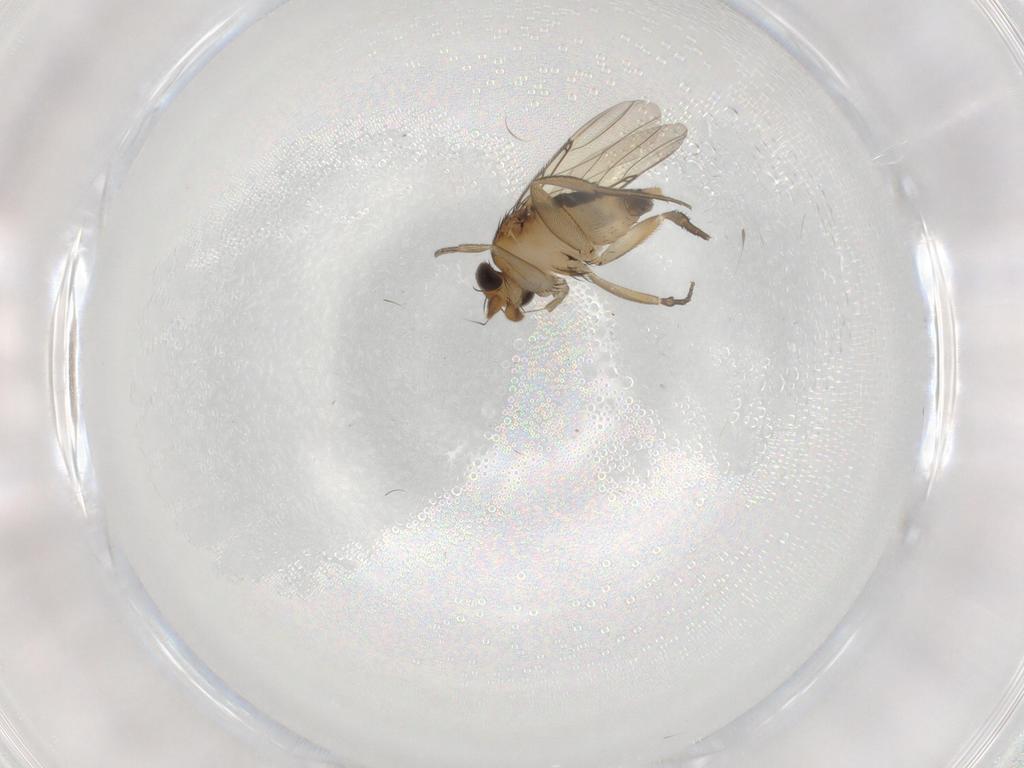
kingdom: Animalia
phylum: Arthropoda
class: Insecta
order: Diptera
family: Phoridae
